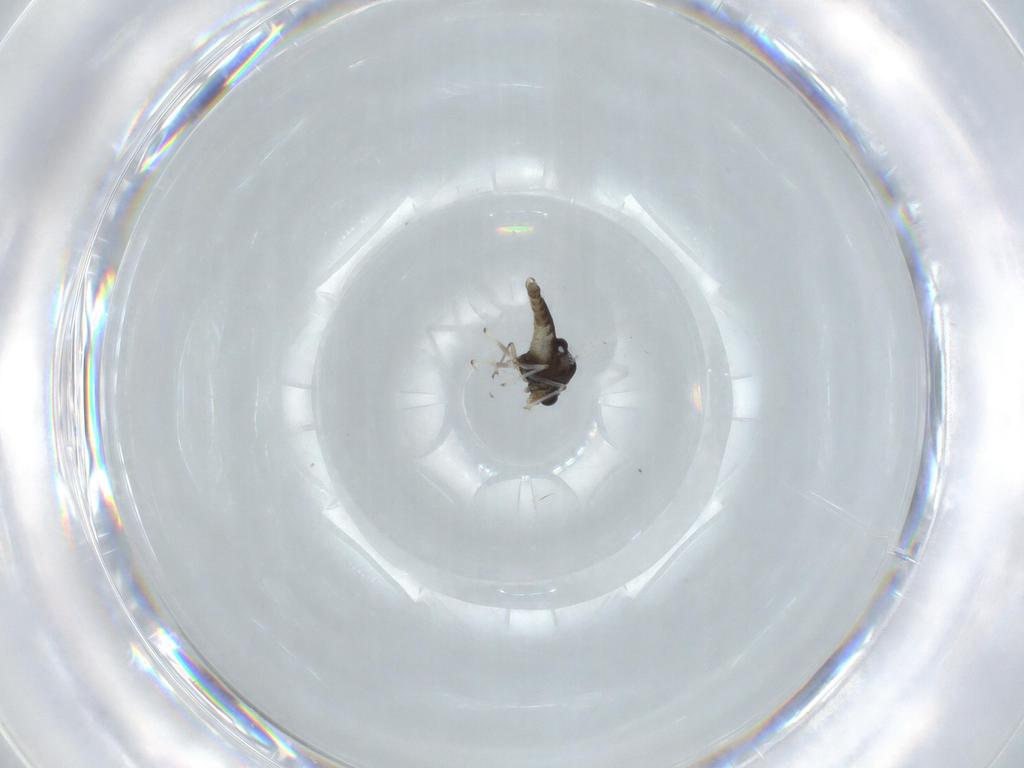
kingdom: Animalia
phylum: Arthropoda
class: Insecta
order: Diptera
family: Chironomidae
